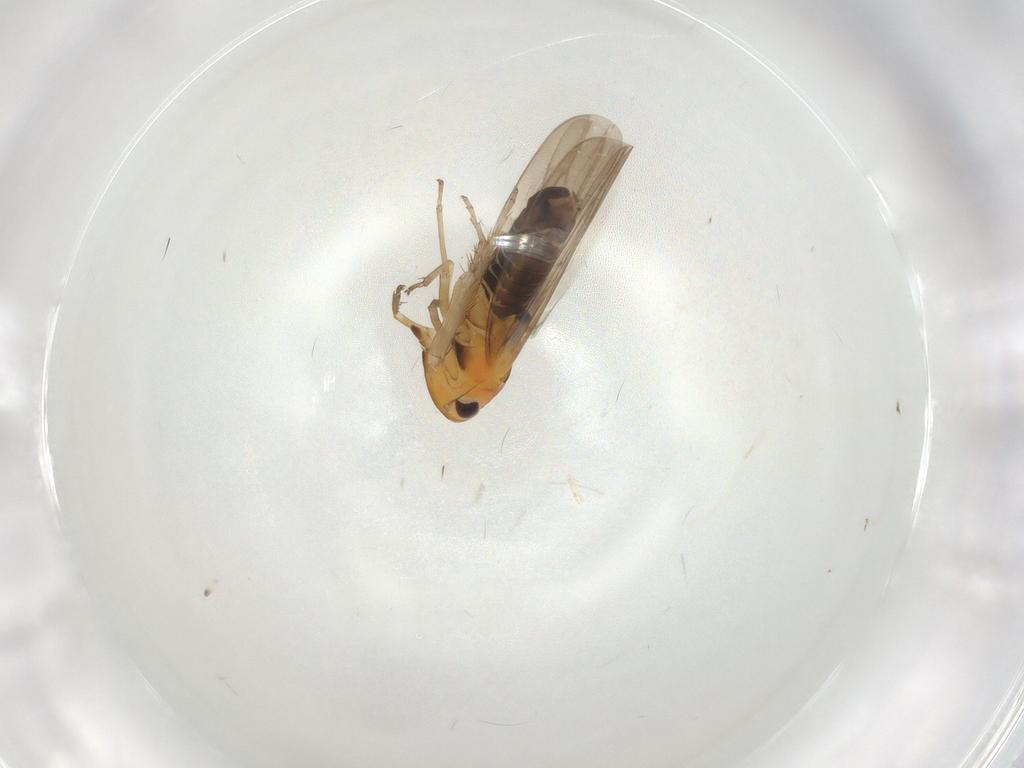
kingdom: Animalia
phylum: Arthropoda
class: Insecta
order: Hemiptera
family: Cicadellidae
